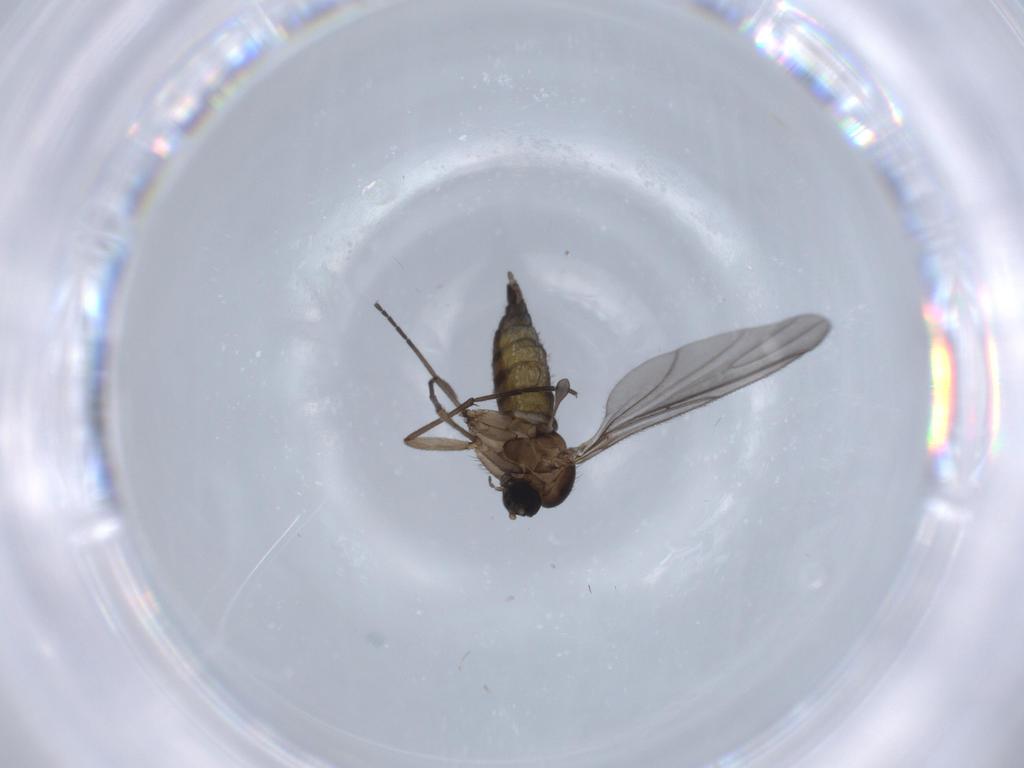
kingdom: Animalia
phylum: Arthropoda
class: Insecta
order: Diptera
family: Sciaridae
